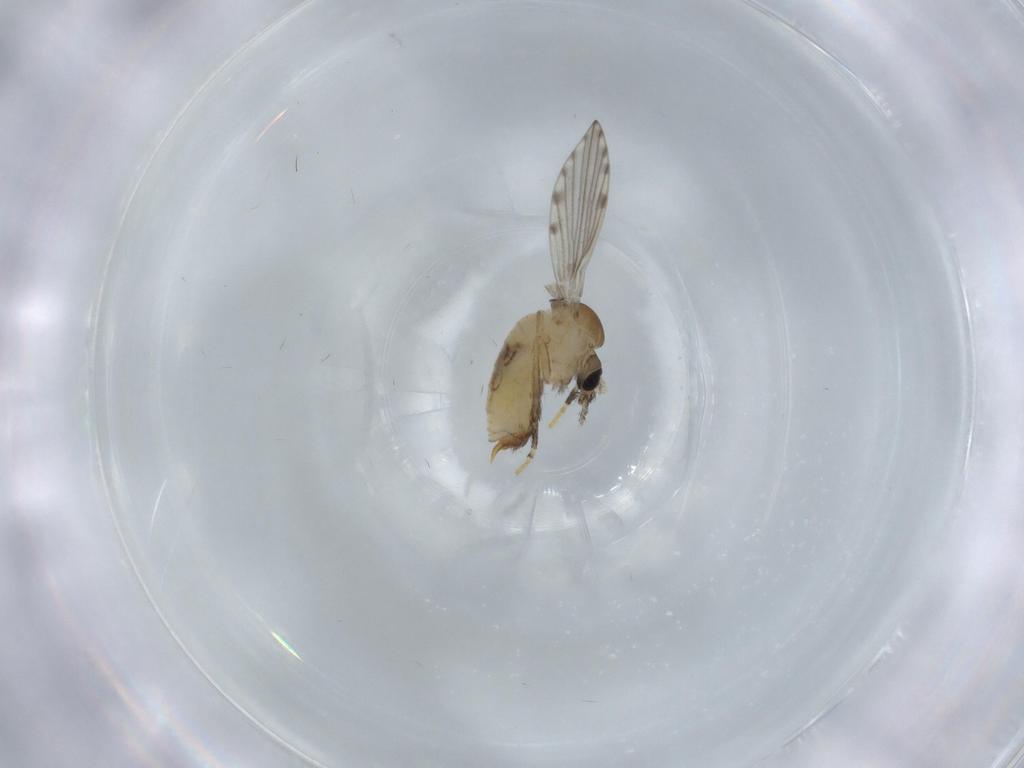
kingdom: Animalia
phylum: Arthropoda
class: Insecta
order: Diptera
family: Psychodidae
